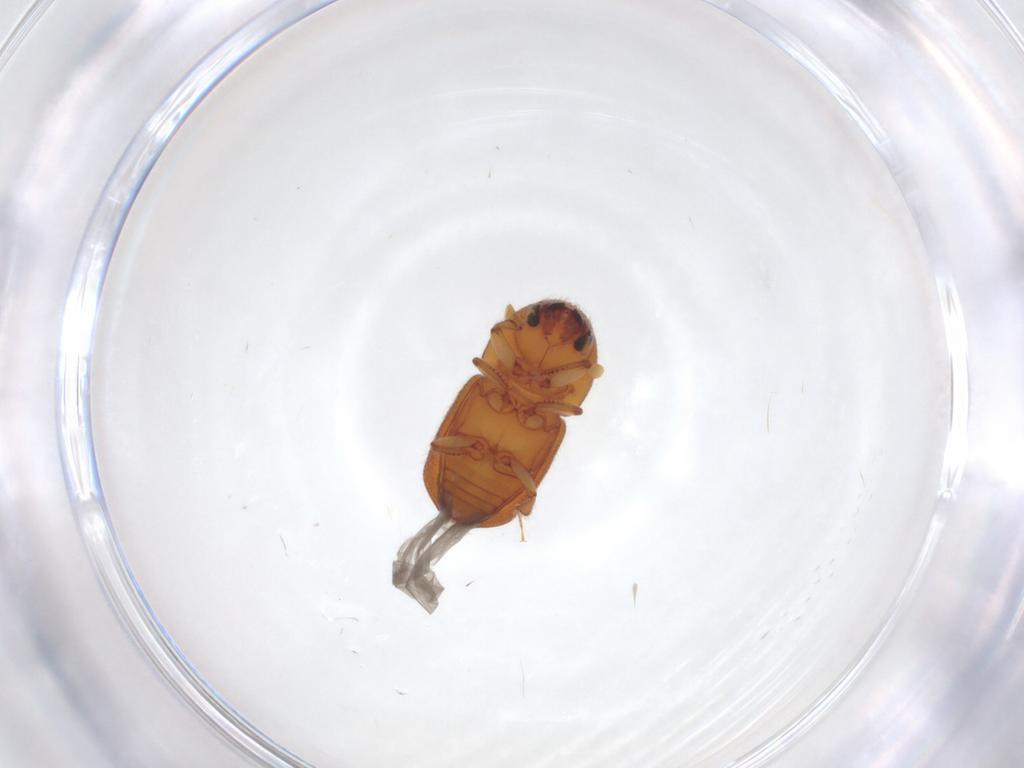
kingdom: Animalia
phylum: Arthropoda
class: Insecta
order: Coleoptera
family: Curculionidae
